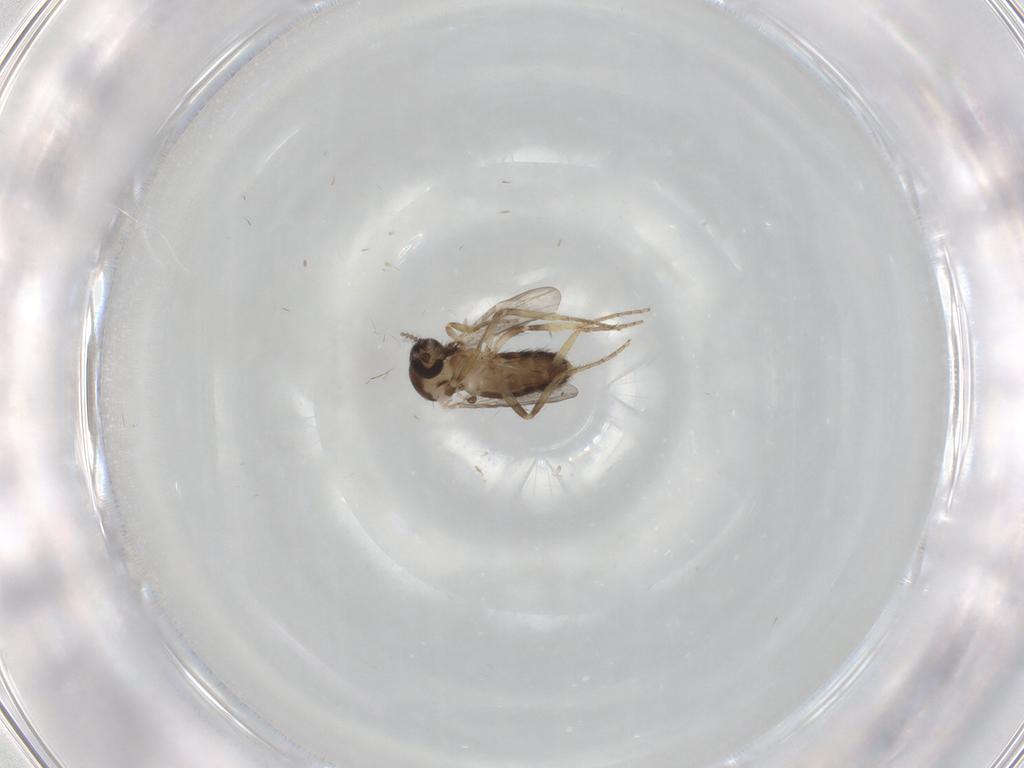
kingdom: Animalia
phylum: Arthropoda
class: Insecta
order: Diptera
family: Ceratopogonidae
